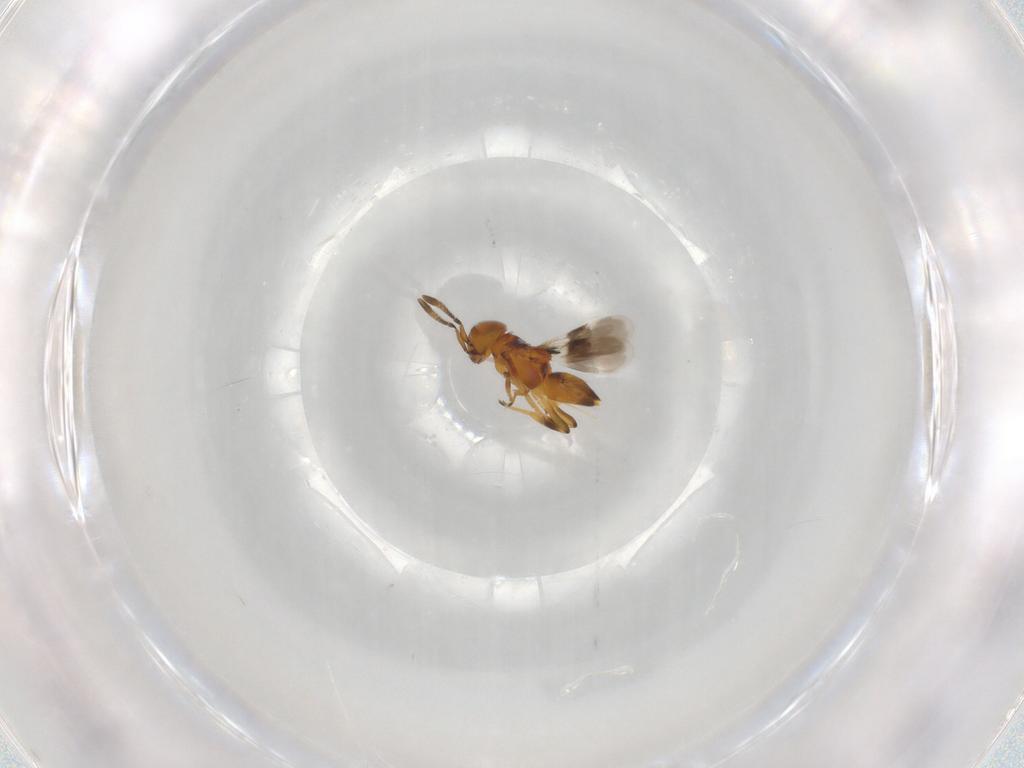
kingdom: Animalia
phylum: Arthropoda
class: Insecta
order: Hymenoptera
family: Encyrtidae
